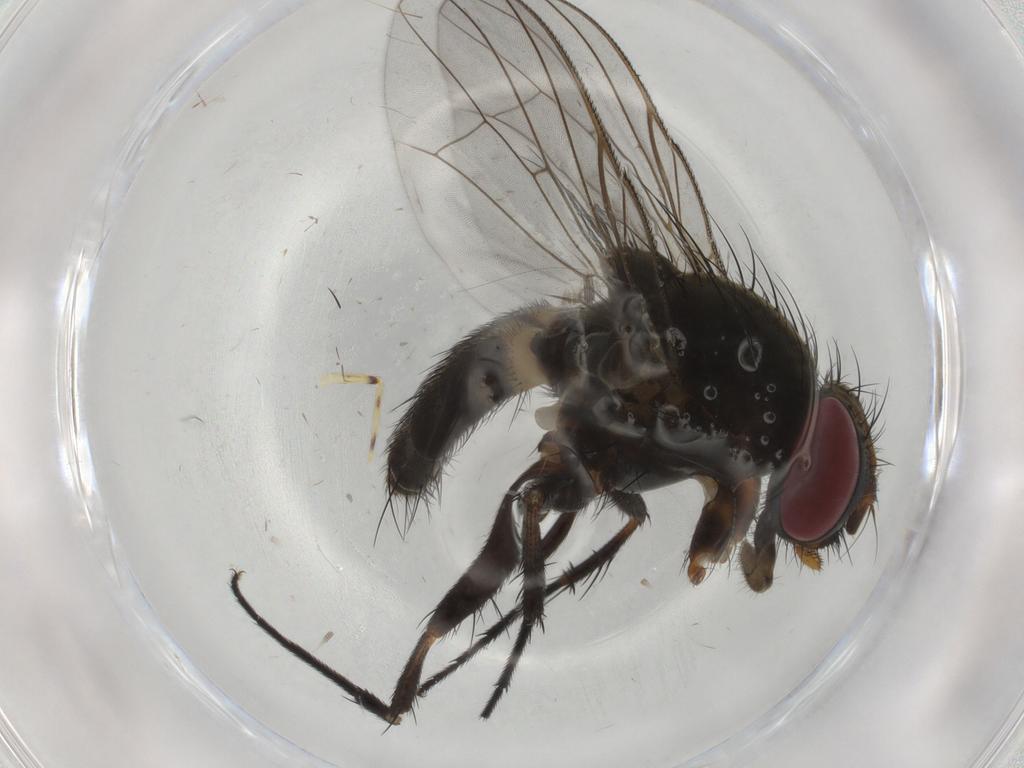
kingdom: Animalia
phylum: Arthropoda
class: Insecta
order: Diptera
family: Sciaridae
